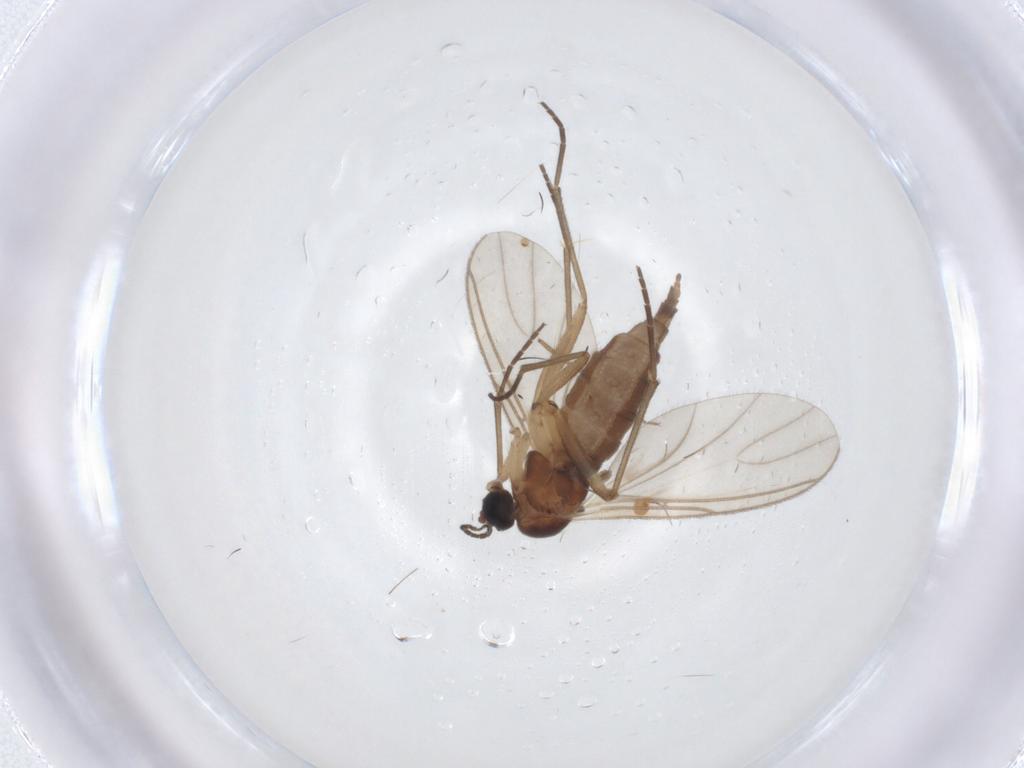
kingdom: Animalia
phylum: Arthropoda
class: Insecta
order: Diptera
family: Sciaridae
